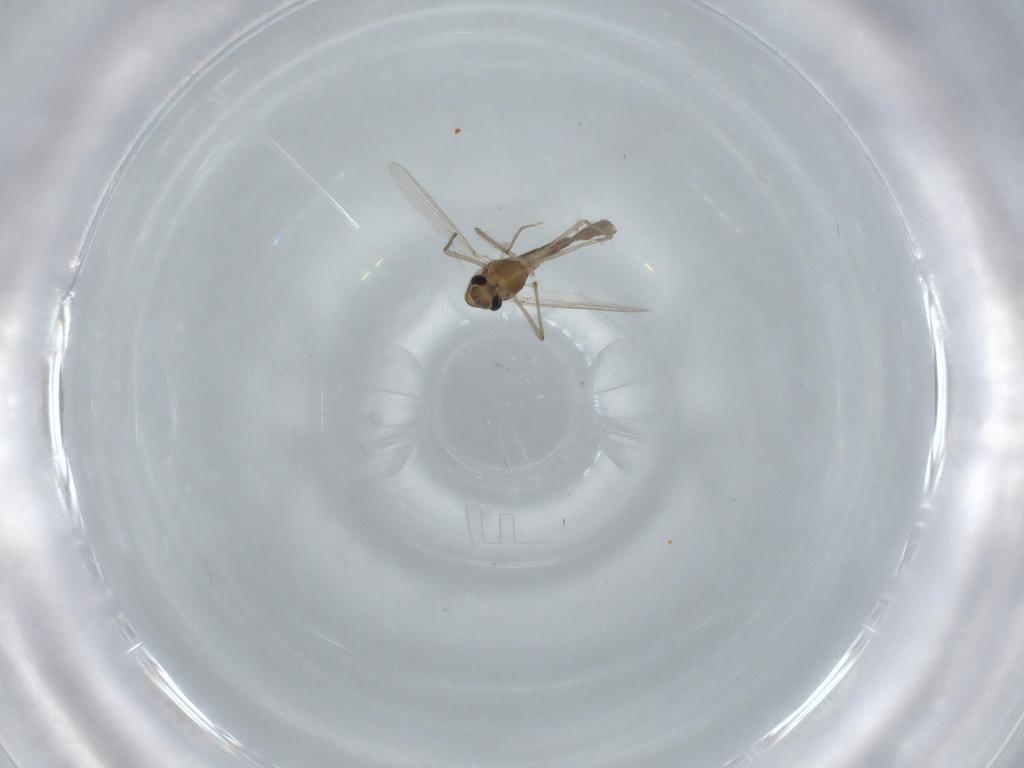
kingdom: Animalia
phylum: Arthropoda
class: Insecta
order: Diptera
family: Chironomidae
